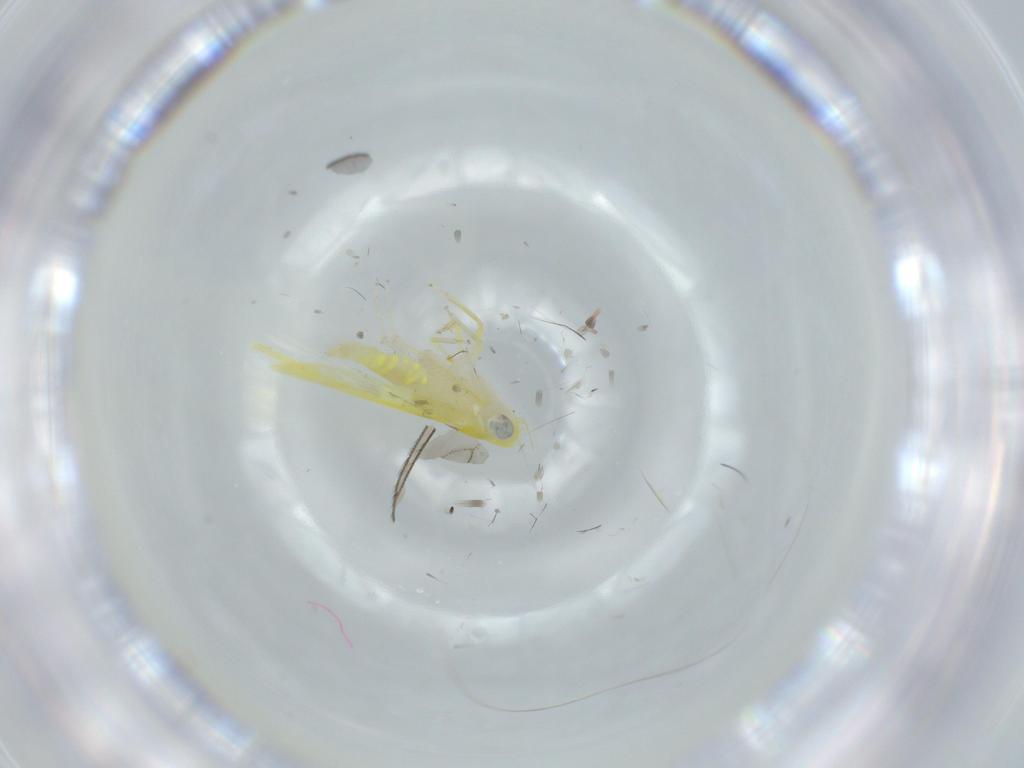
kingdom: Animalia
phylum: Arthropoda
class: Insecta
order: Hemiptera
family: Cicadellidae
